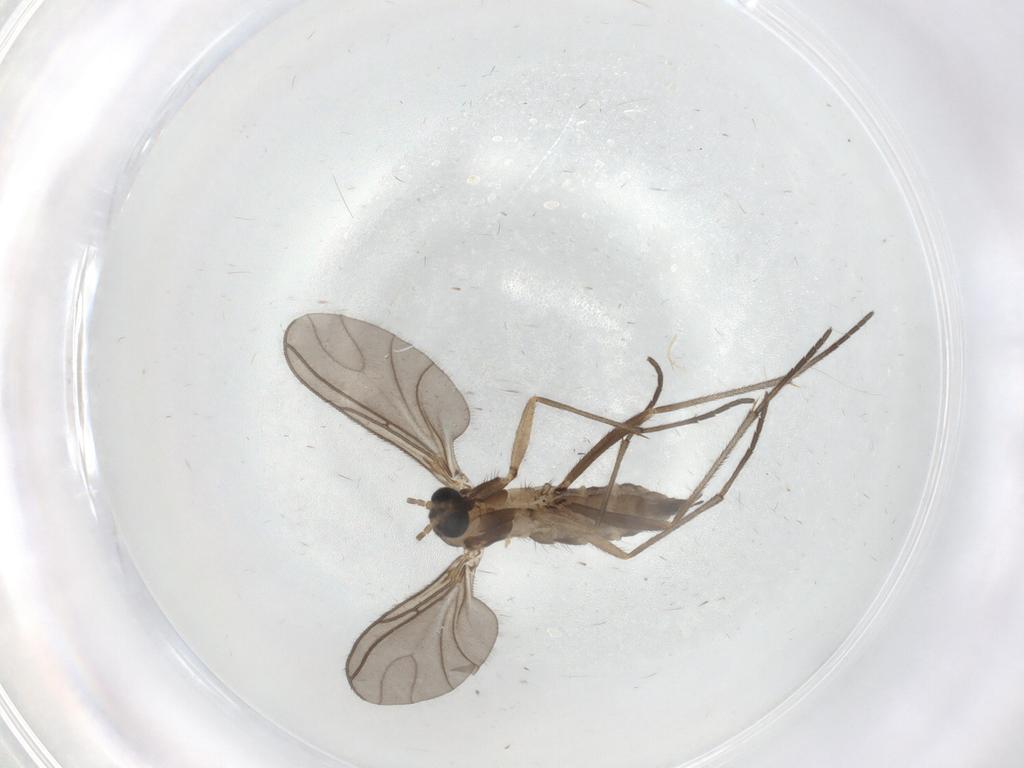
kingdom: Animalia
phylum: Arthropoda
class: Insecta
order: Diptera
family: Sciaridae
